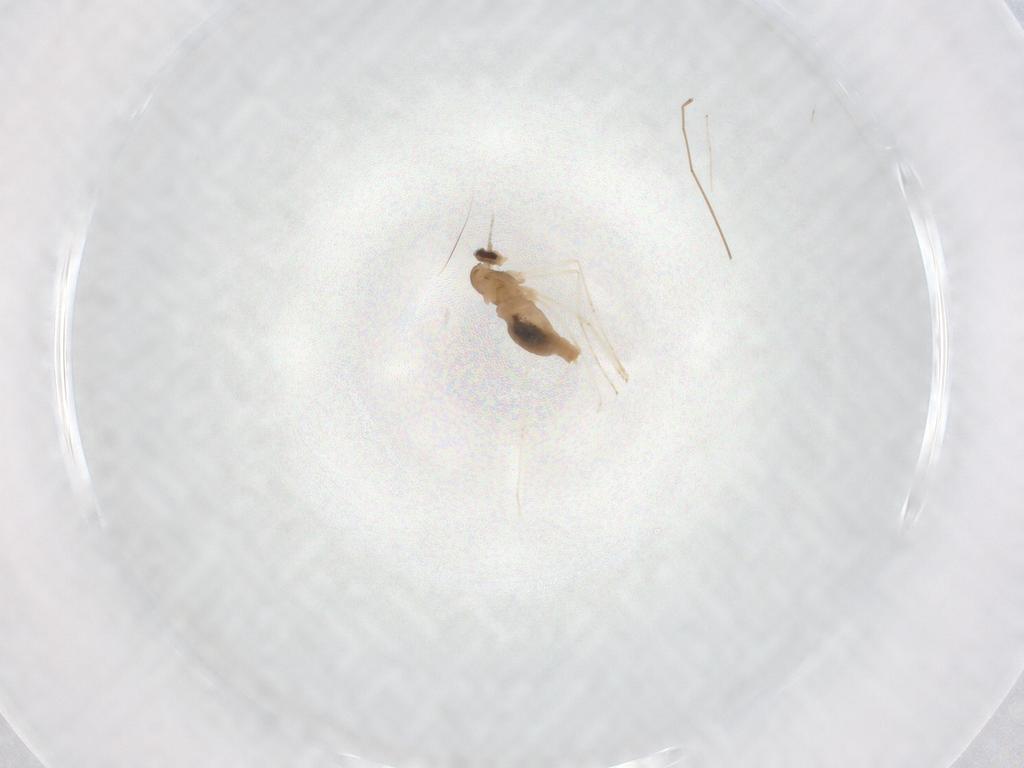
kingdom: Animalia
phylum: Arthropoda
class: Insecta
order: Diptera
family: Cecidomyiidae
